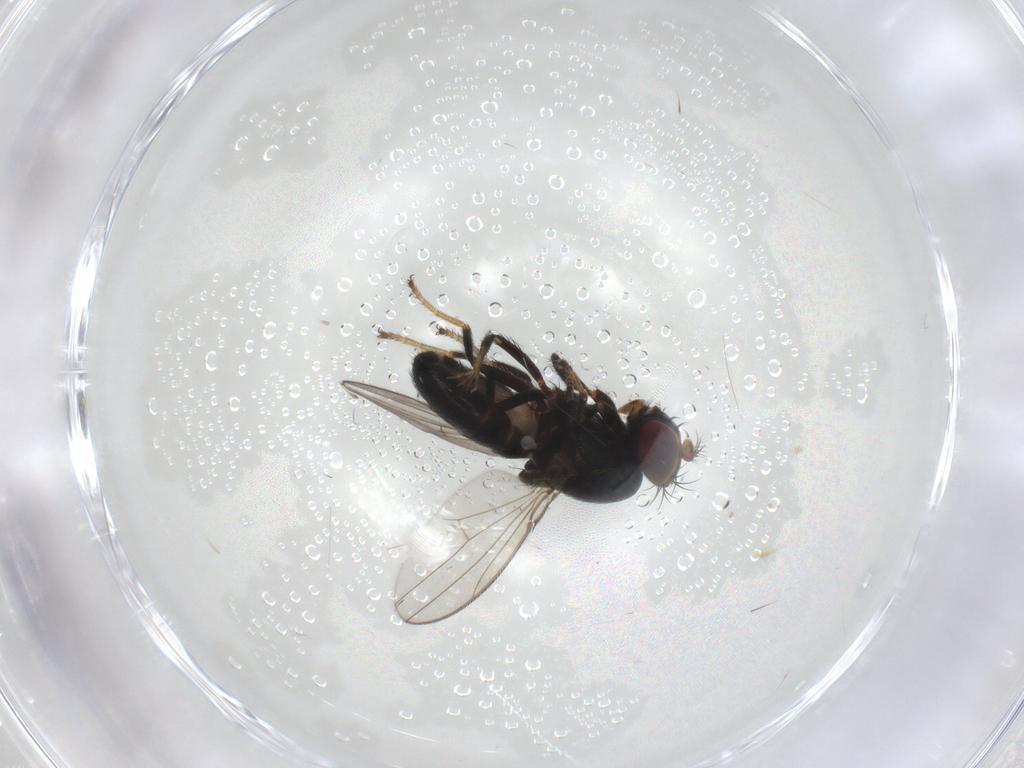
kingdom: Animalia
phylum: Arthropoda
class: Insecta
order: Diptera
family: Ephydridae
